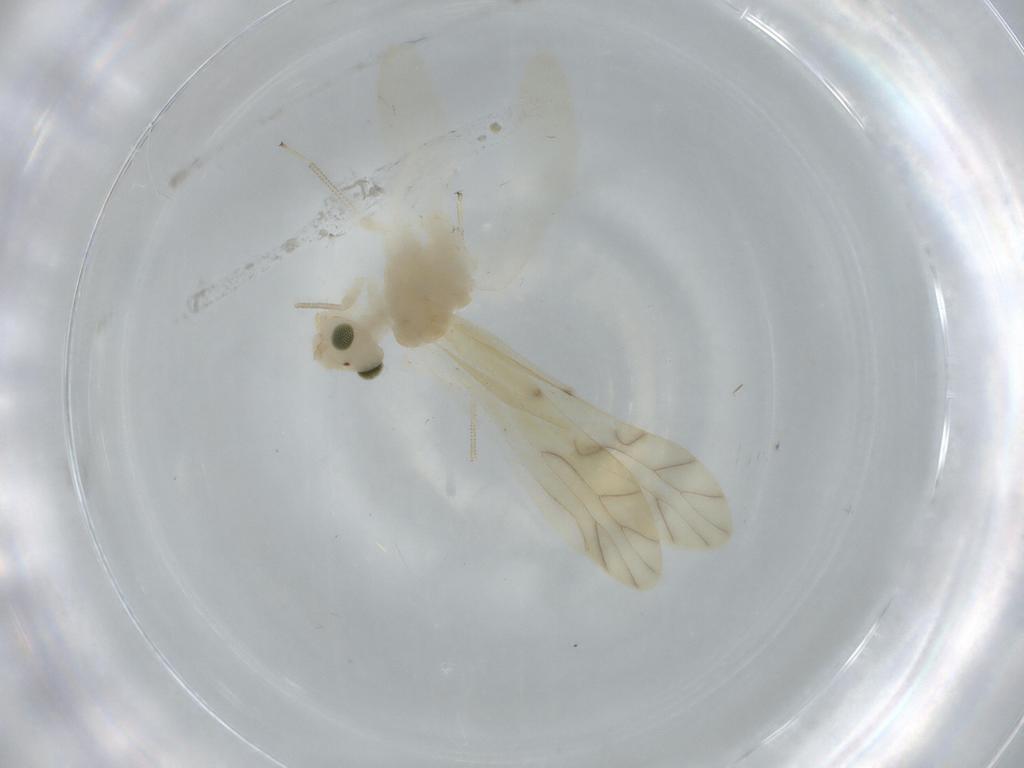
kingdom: Animalia
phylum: Arthropoda
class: Insecta
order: Psocodea
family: Caeciliusidae
